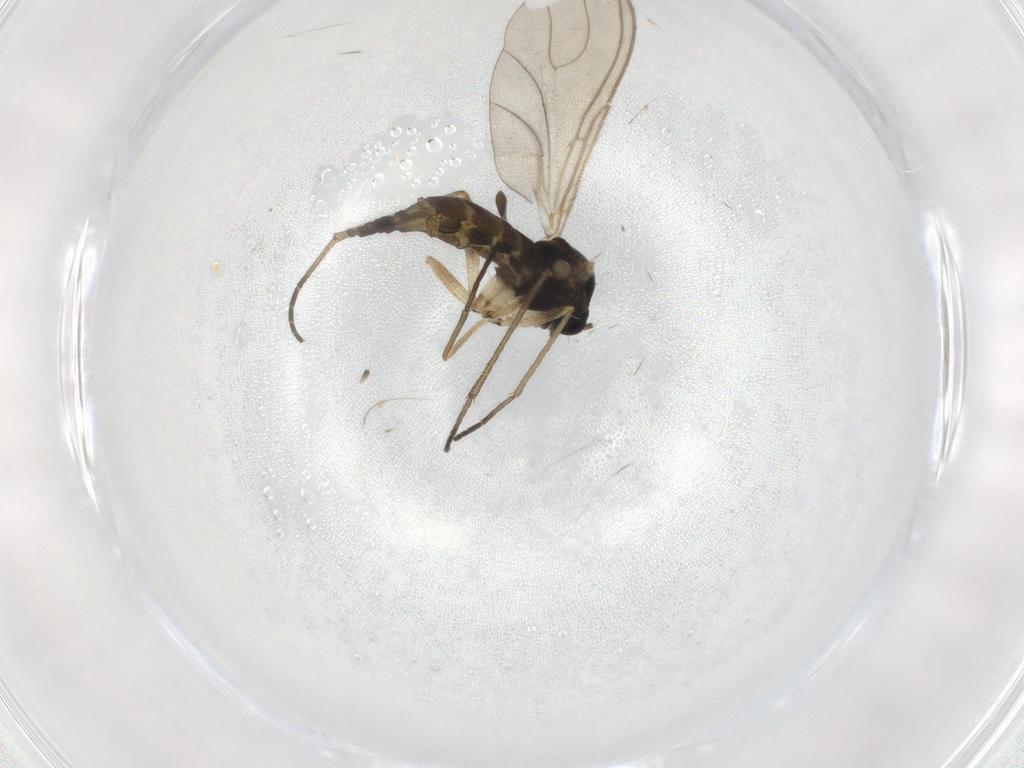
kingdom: Animalia
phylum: Arthropoda
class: Insecta
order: Diptera
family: Sciaridae
